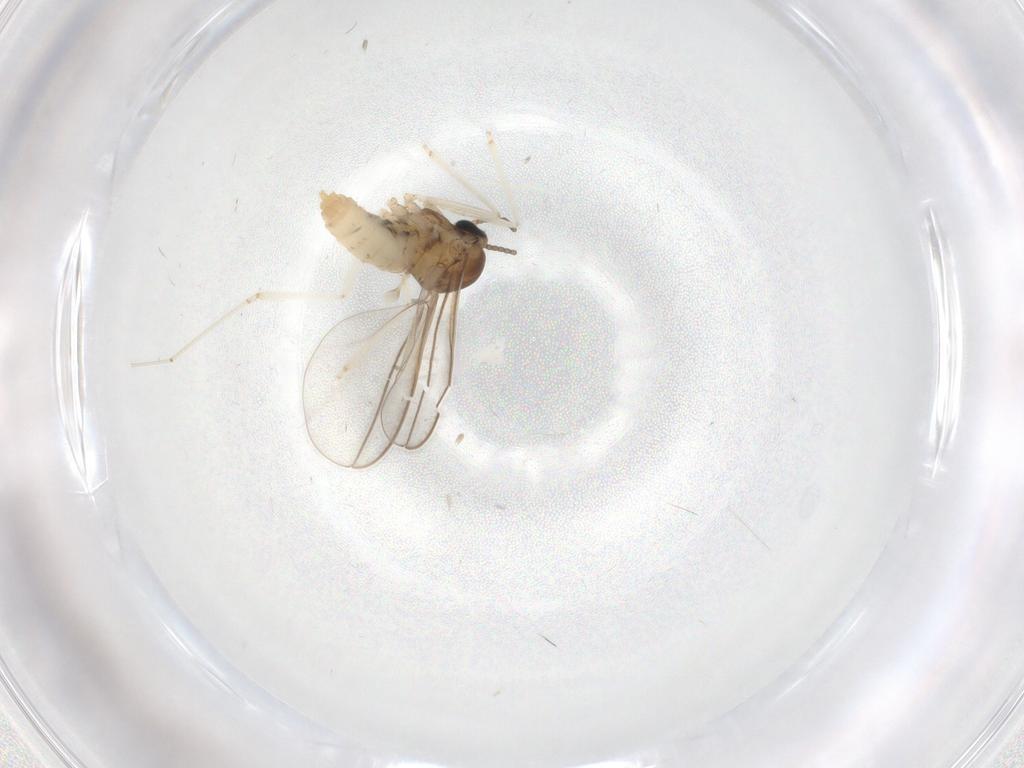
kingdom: Animalia
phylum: Arthropoda
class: Insecta
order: Diptera
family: Cecidomyiidae
